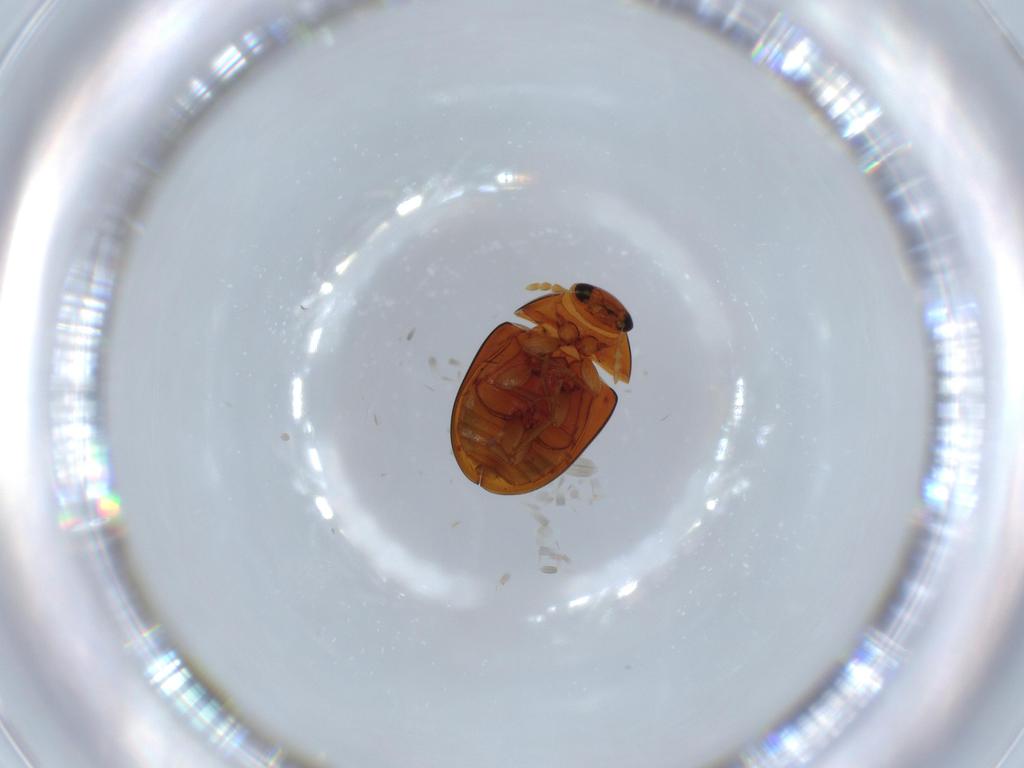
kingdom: Animalia
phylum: Arthropoda
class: Insecta
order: Coleoptera
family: Chrysomelidae
